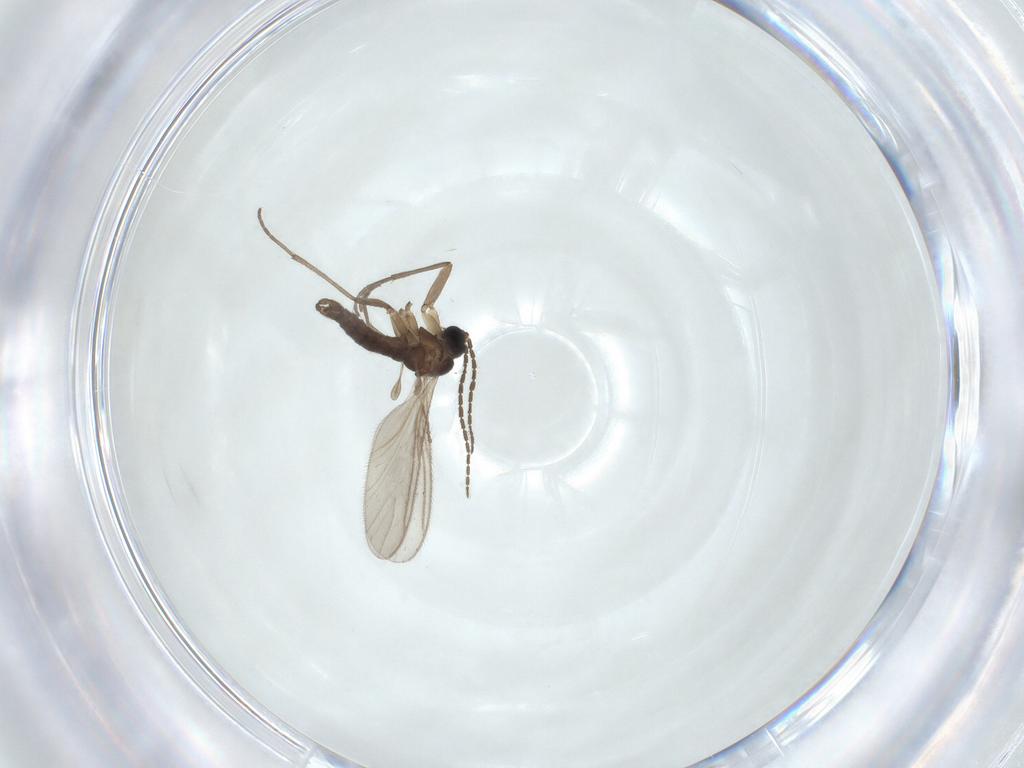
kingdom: Animalia
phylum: Arthropoda
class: Insecta
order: Diptera
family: Sciaridae
